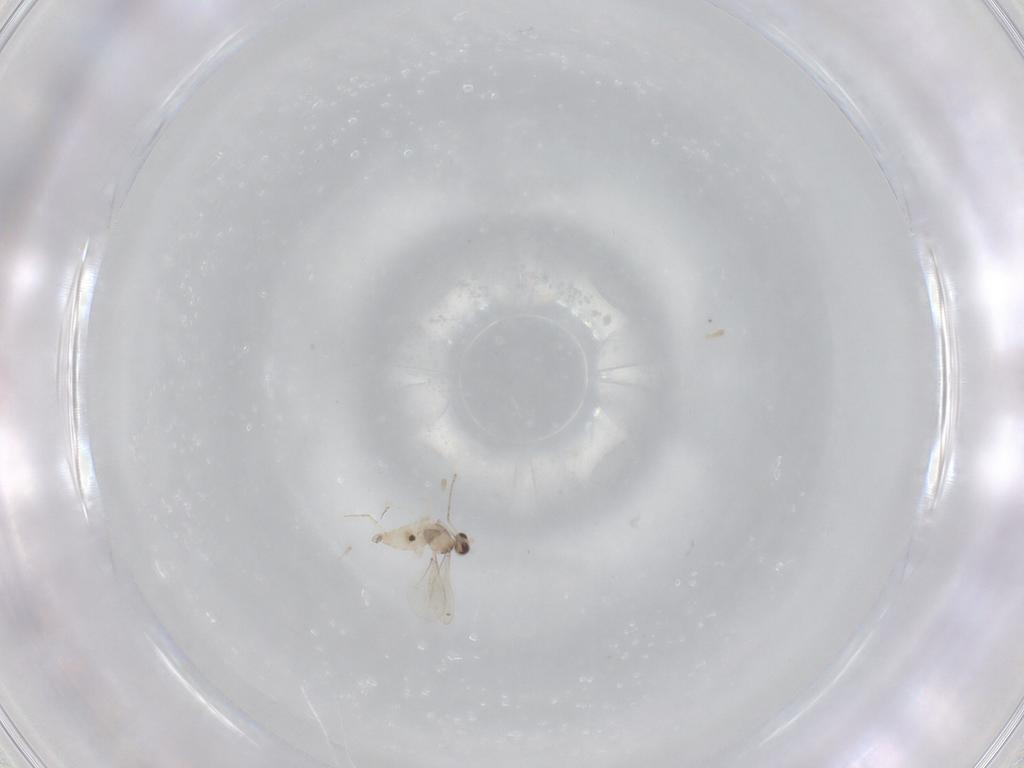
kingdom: Animalia
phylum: Arthropoda
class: Insecta
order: Diptera
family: Cecidomyiidae
